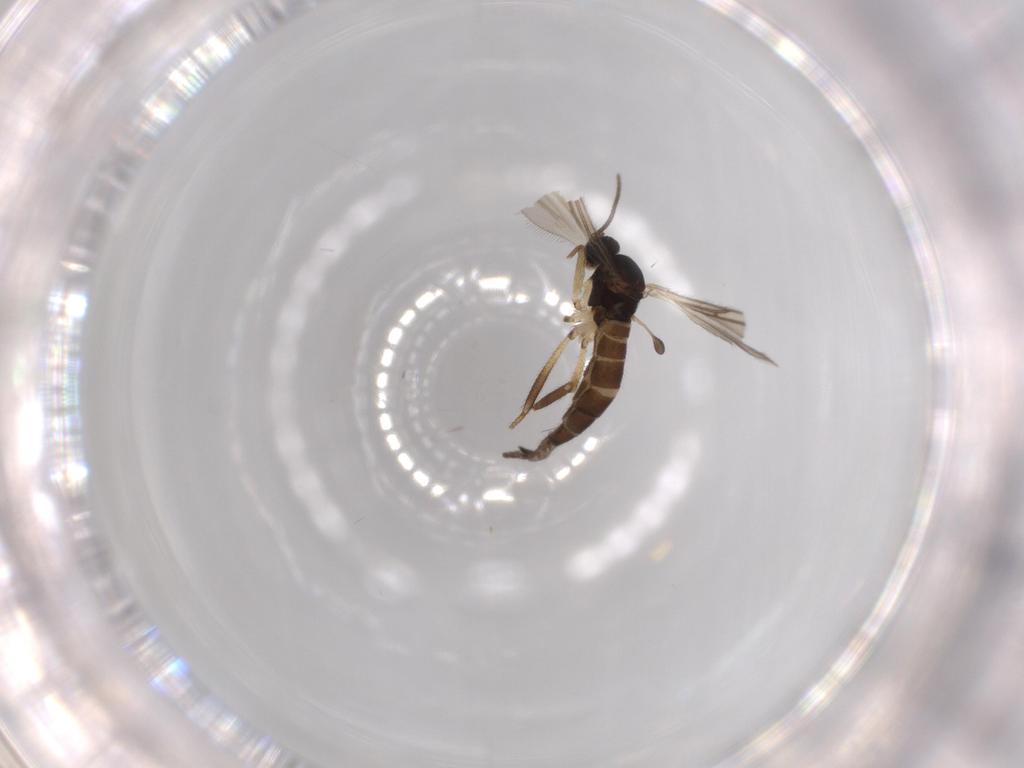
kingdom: Animalia
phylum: Arthropoda
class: Insecta
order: Diptera
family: Sciaridae
